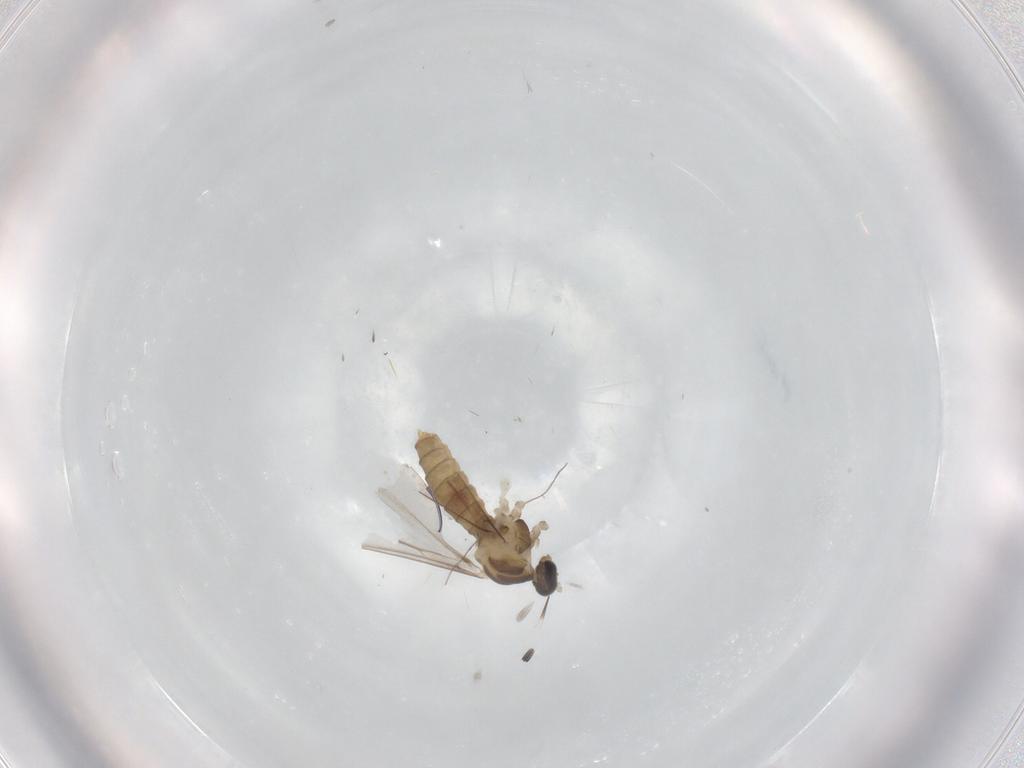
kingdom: Animalia
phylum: Arthropoda
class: Insecta
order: Diptera
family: Cecidomyiidae
